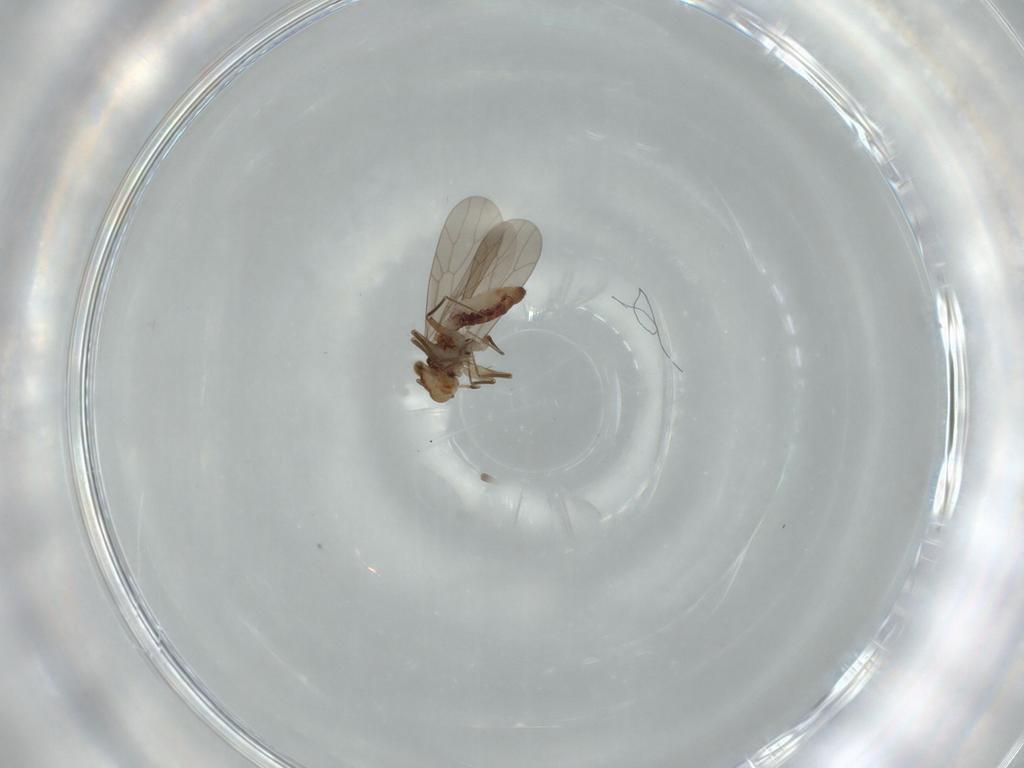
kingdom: Animalia
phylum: Arthropoda
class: Insecta
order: Psocodea
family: Lepidopsocidae
